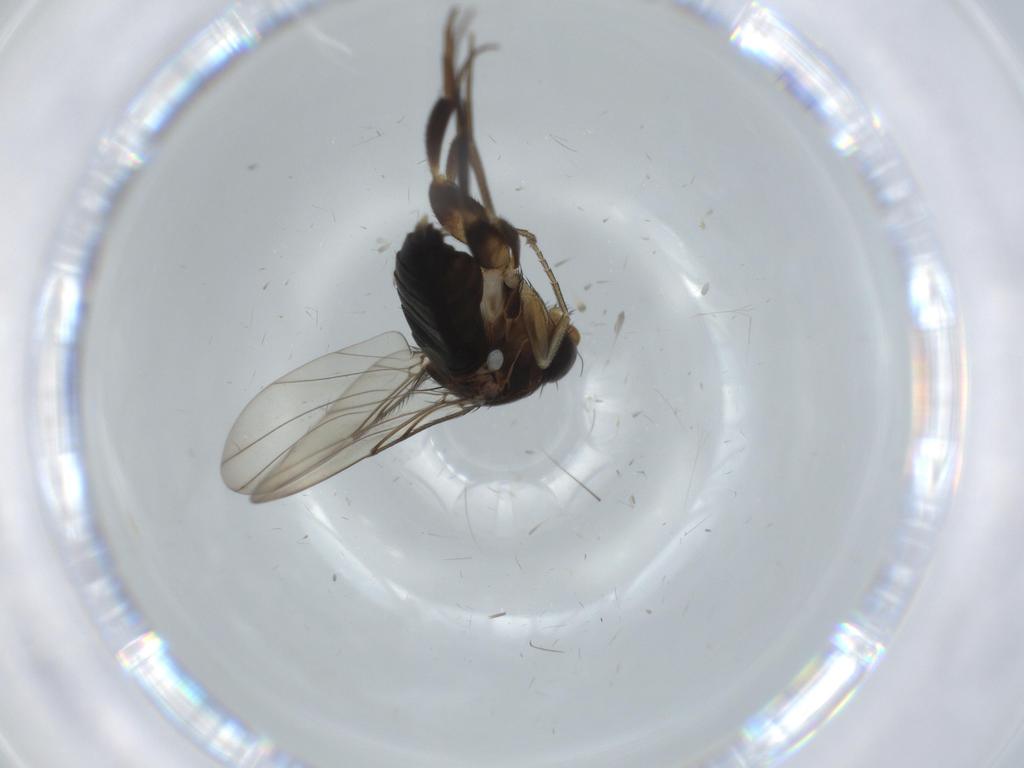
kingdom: Animalia
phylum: Arthropoda
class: Insecta
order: Diptera
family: Phoridae
